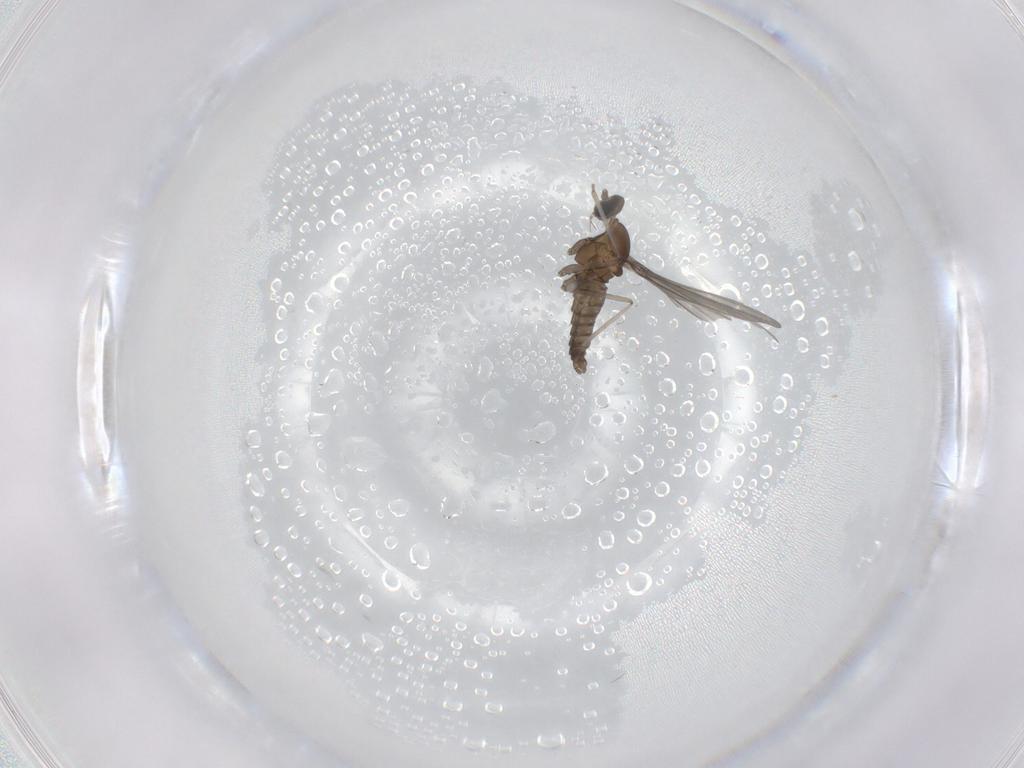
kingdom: Animalia
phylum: Arthropoda
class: Insecta
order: Diptera
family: Cecidomyiidae
